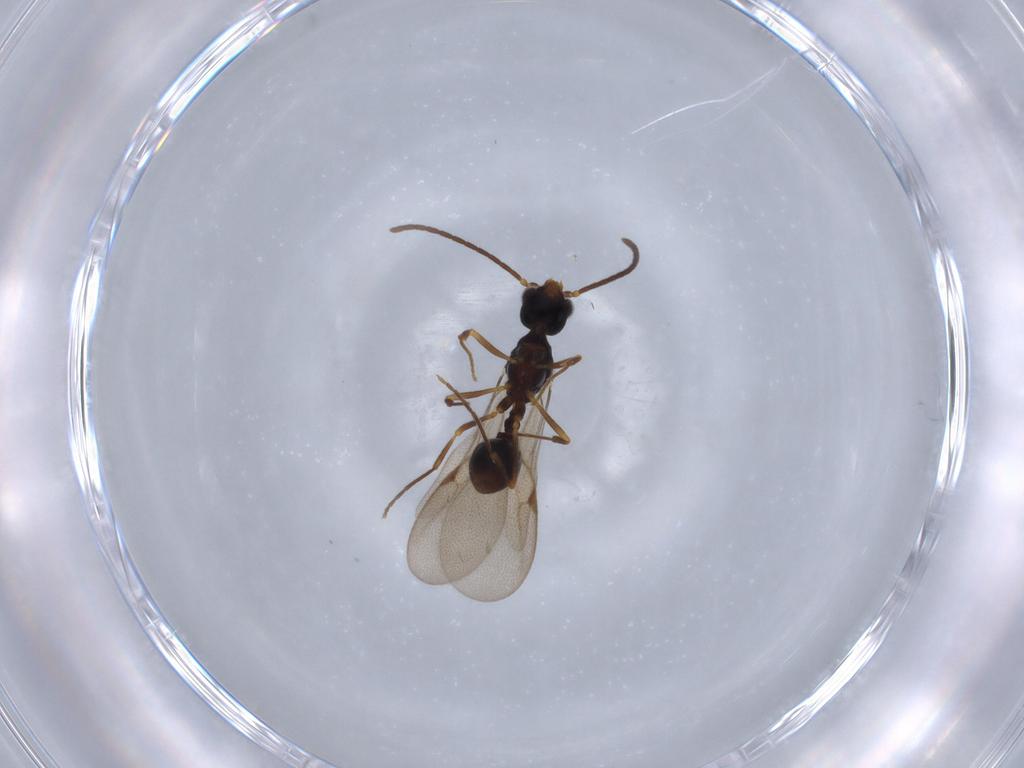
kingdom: Animalia
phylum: Arthropoda
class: Insecta
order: Hymenoptera
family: Formicidae
